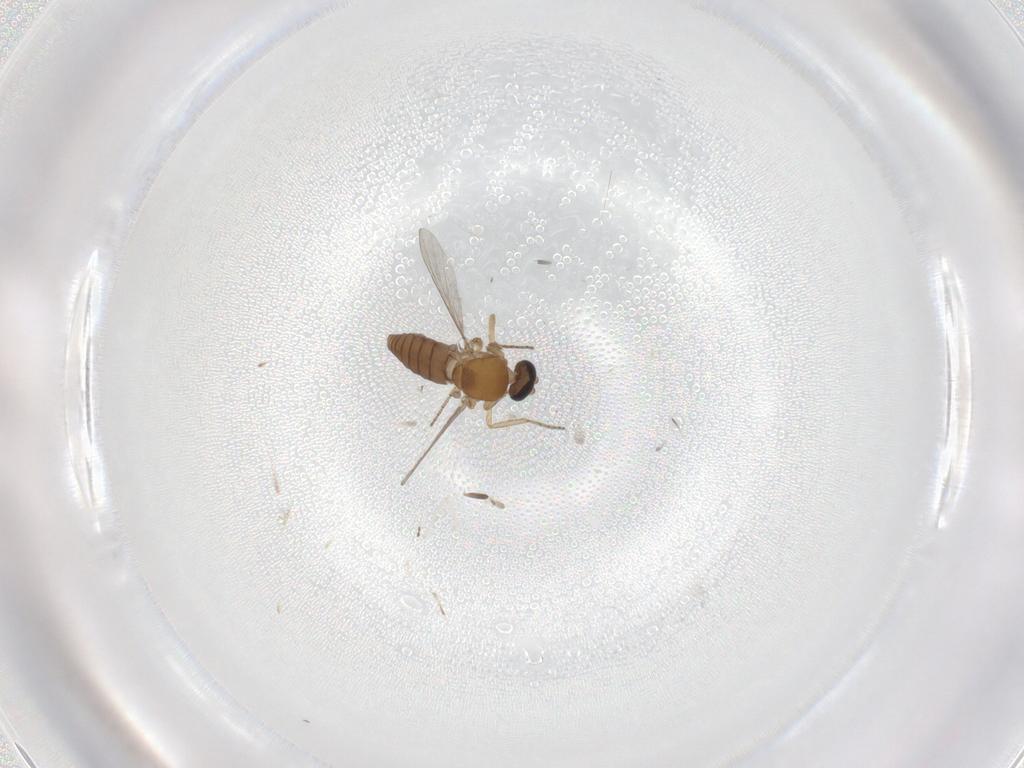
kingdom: Animalia
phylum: Arthropoda
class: Insecta
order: Diptera
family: Ceratopogonidae
